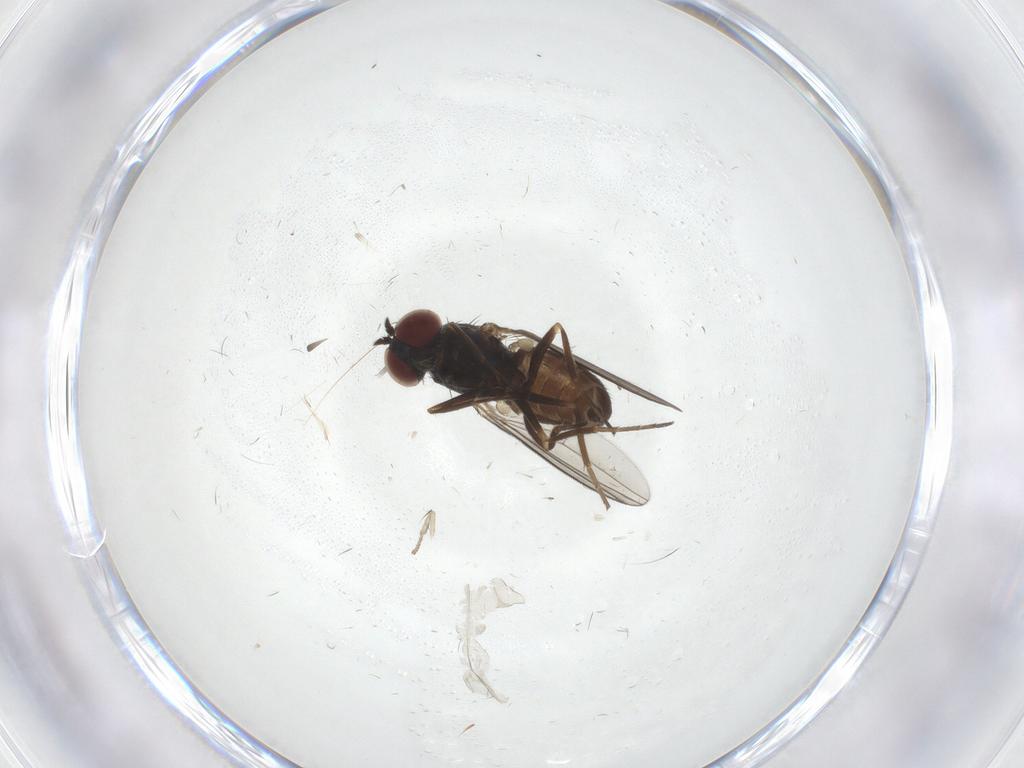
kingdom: Animalia
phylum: Arthropoda
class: Insecta
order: Diptera
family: Dolichopodidae
